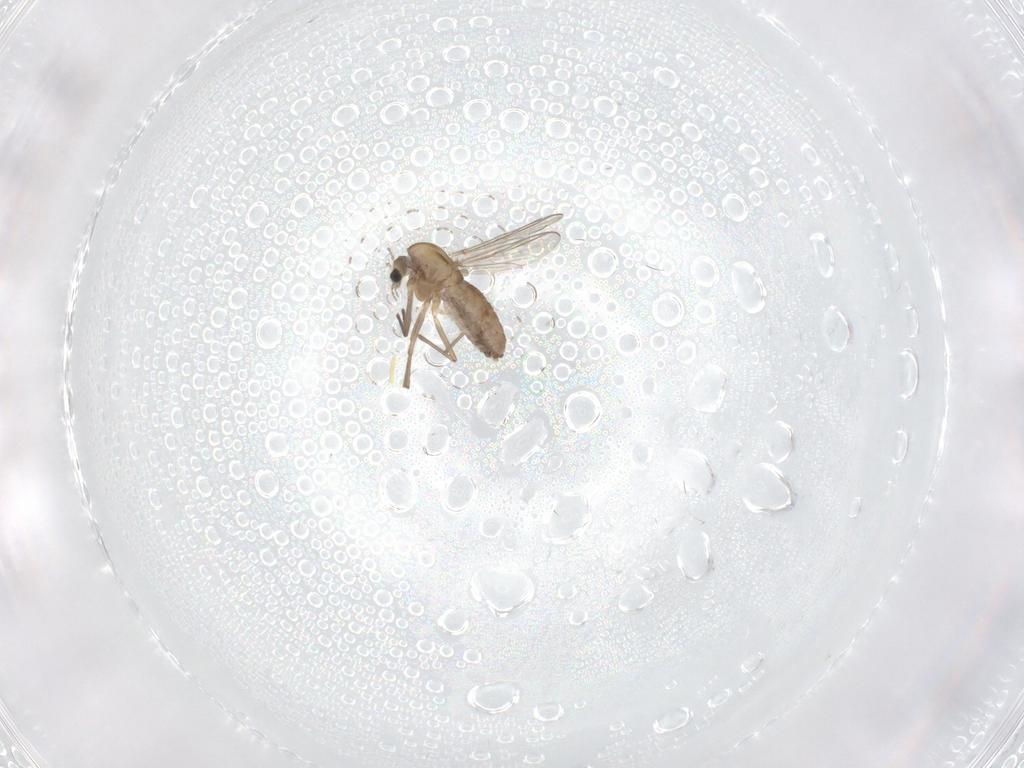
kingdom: Animalia
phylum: Arthropoda
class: Insecta
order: Diptera
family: Chironomidae
